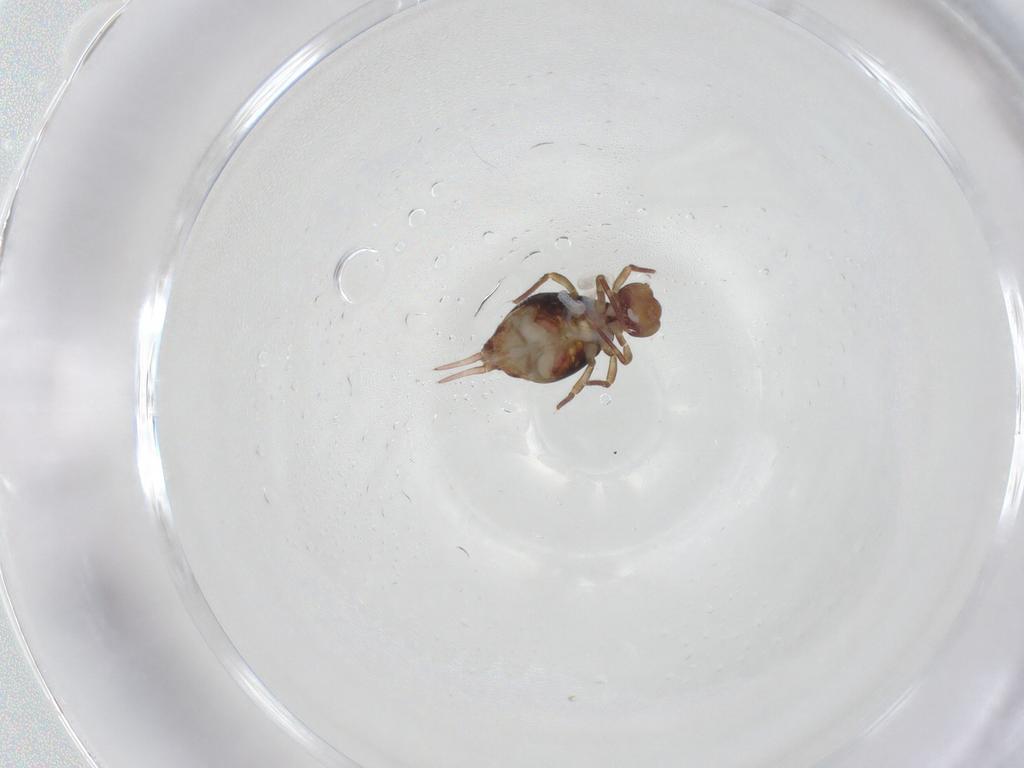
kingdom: Animalia
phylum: Arthropoda
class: Collembola
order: Symphypleona
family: Dicyrtomidae
